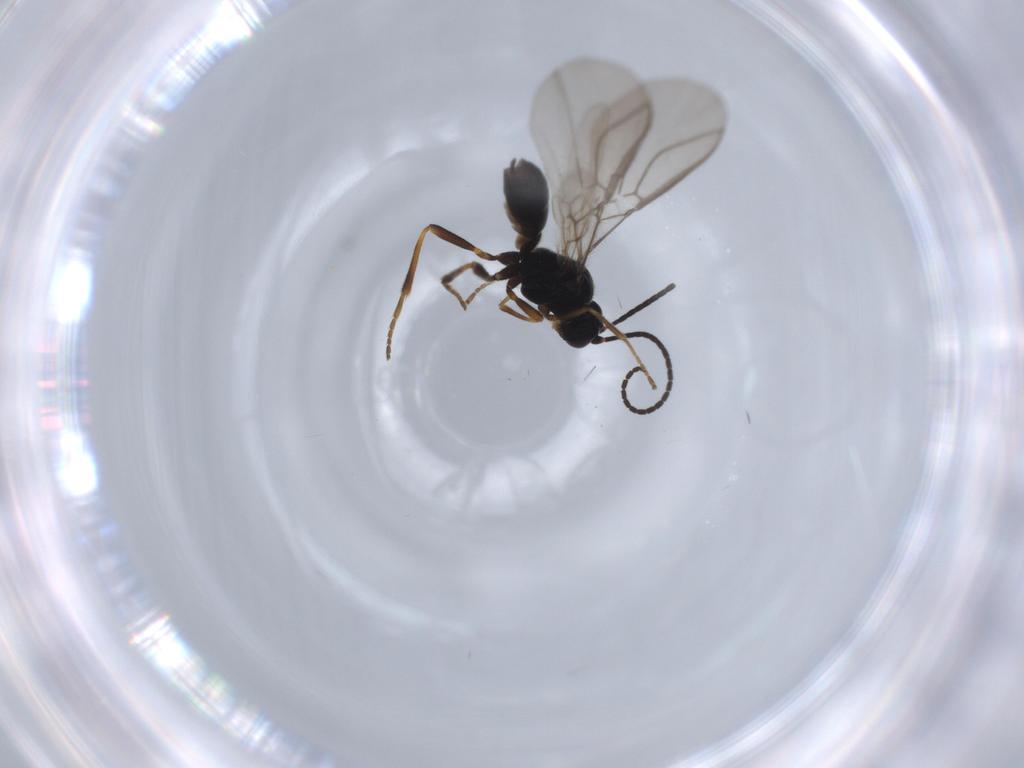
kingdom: Animalia
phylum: Arthropoda
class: Insecta
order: Hymenoptera
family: Braconidae
